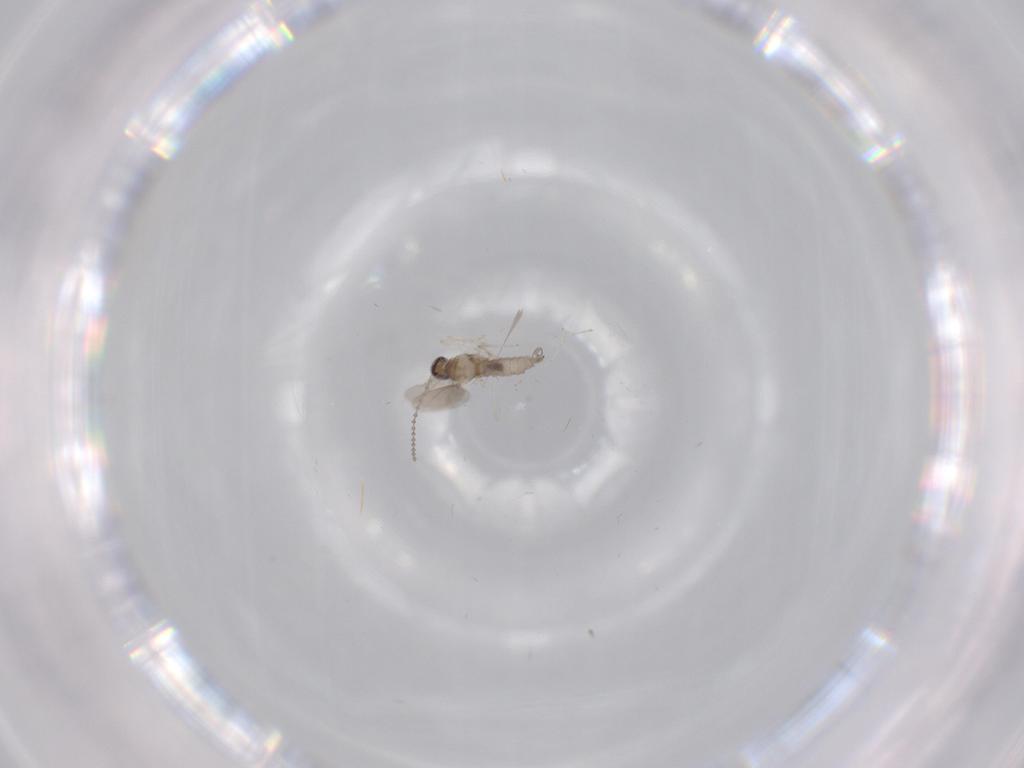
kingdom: Animalia
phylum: Arthropoda
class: Insecta
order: Diptera
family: Cecidomyiidae
